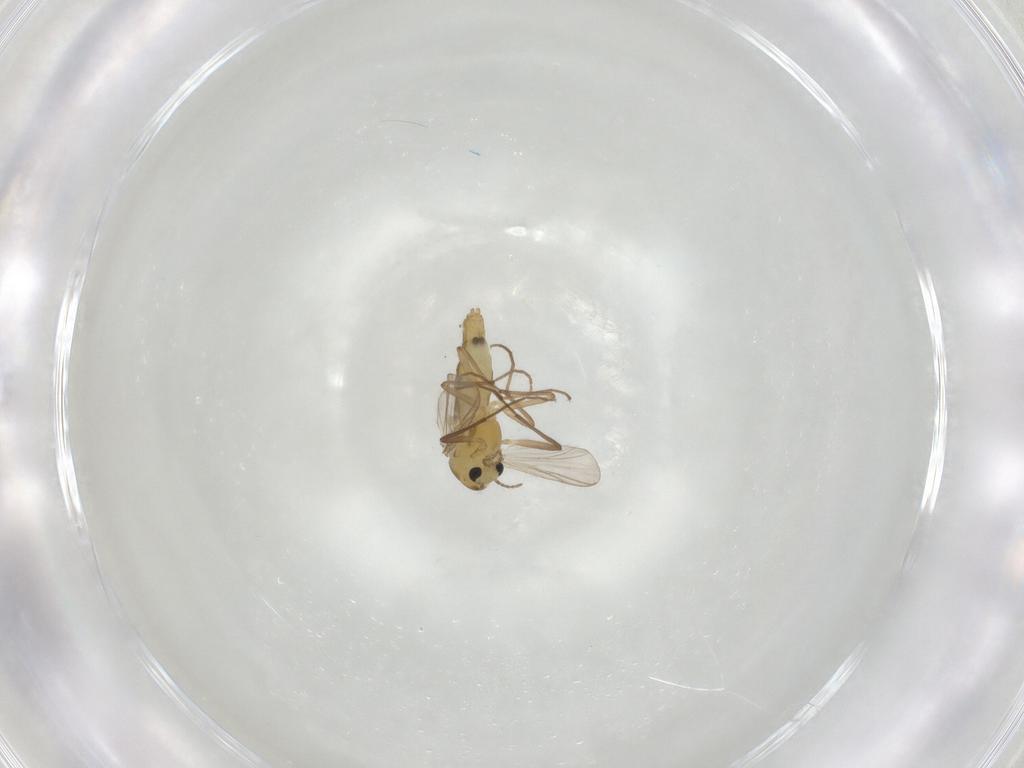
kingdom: Animalia
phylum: Arthropoda
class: Insecta
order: Diptera
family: Chironomidae
